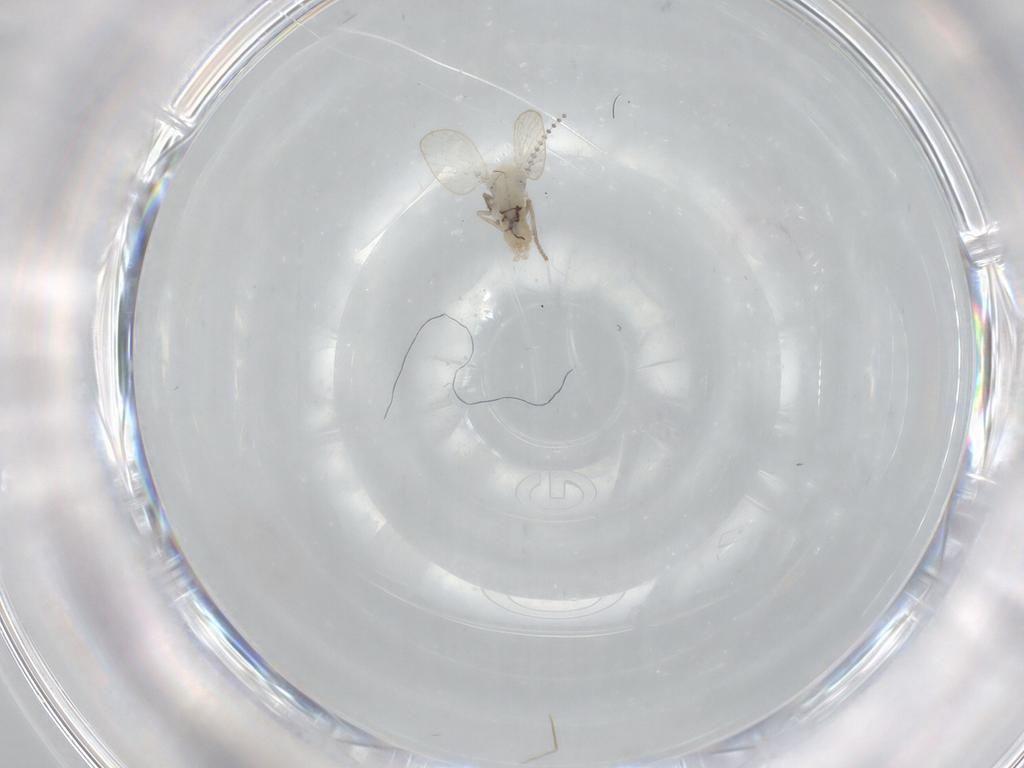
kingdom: Animalia
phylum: Arthropoda
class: Insecta
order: Diptera
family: Psychodidae
